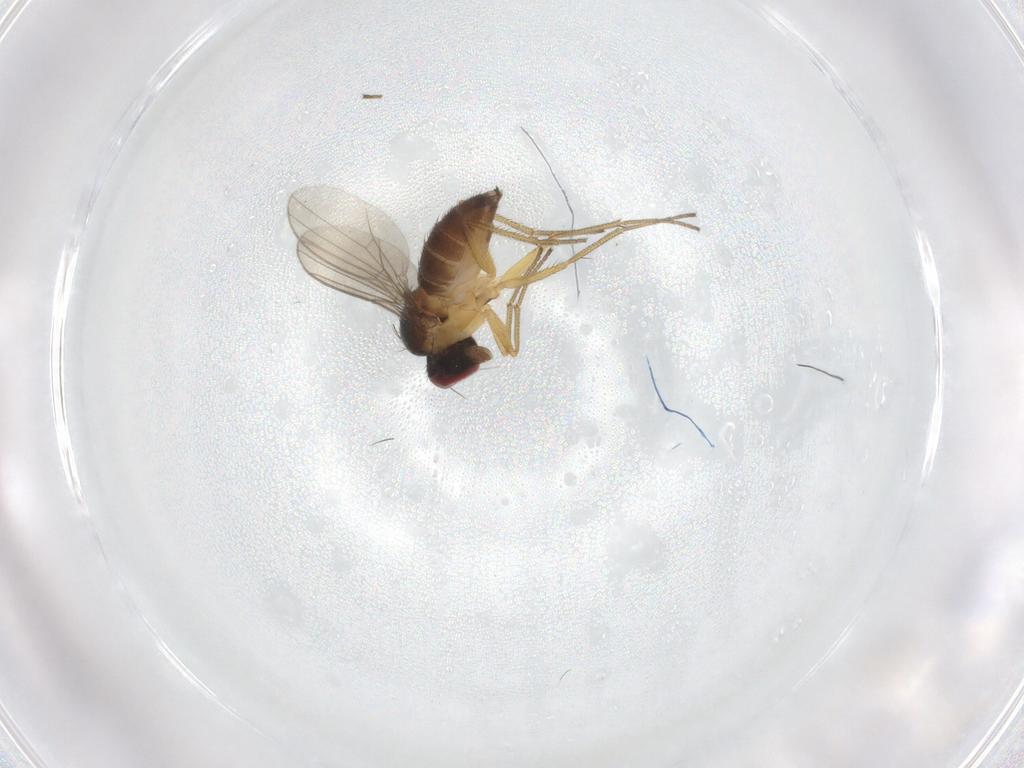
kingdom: Animalia
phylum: Arthropoda
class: Insecta
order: Diptera
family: Dolichopodidae
